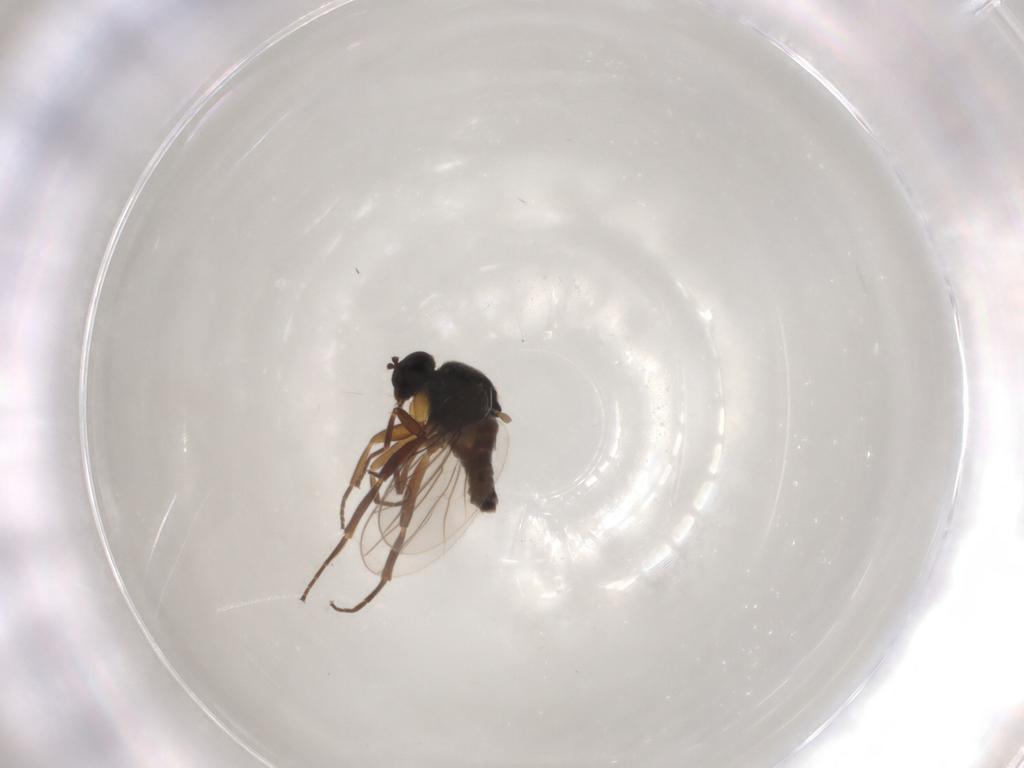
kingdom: Animalia
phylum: Arthropoda
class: Insecta
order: Diptera
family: Hybotidae
